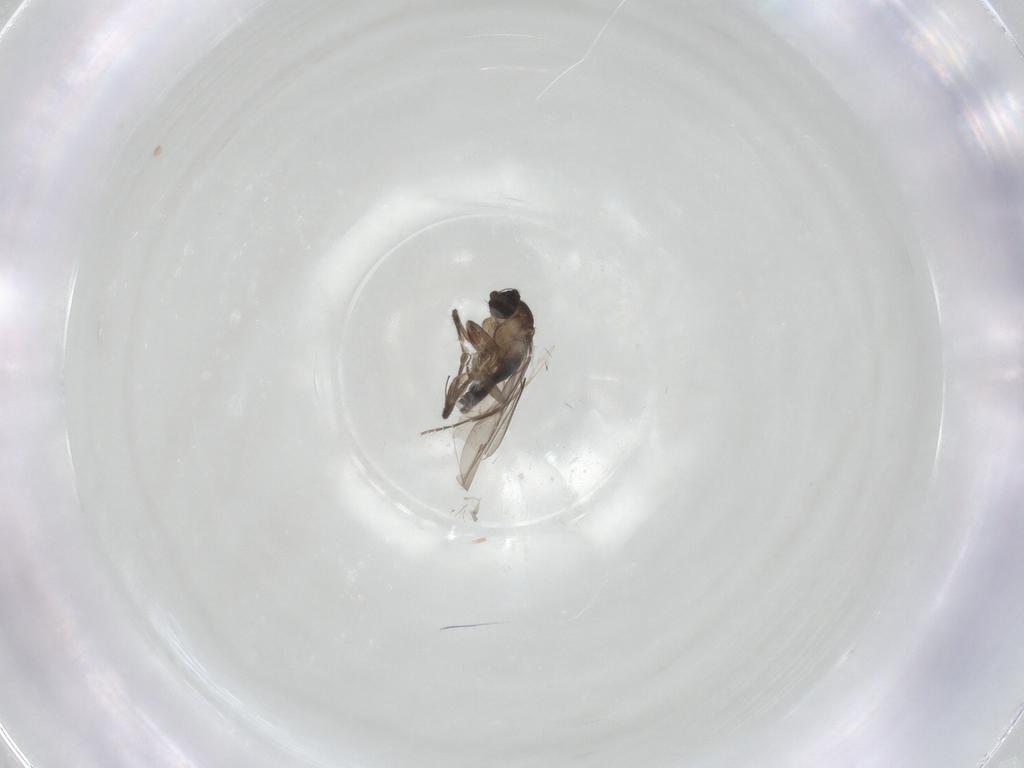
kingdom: Animalia
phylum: Arthropoda
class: Insecta
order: Diptera
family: Cecidomyiidae
